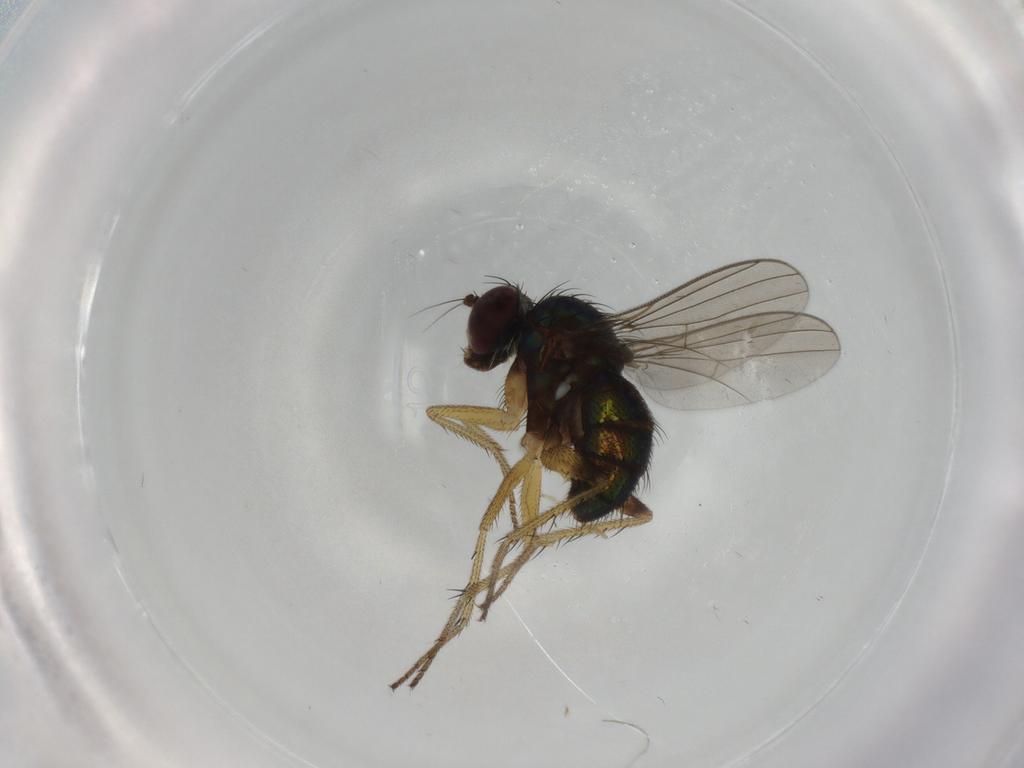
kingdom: Animalia
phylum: Arthropoda
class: Insecta
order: Diptera
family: Dolichopodidae
